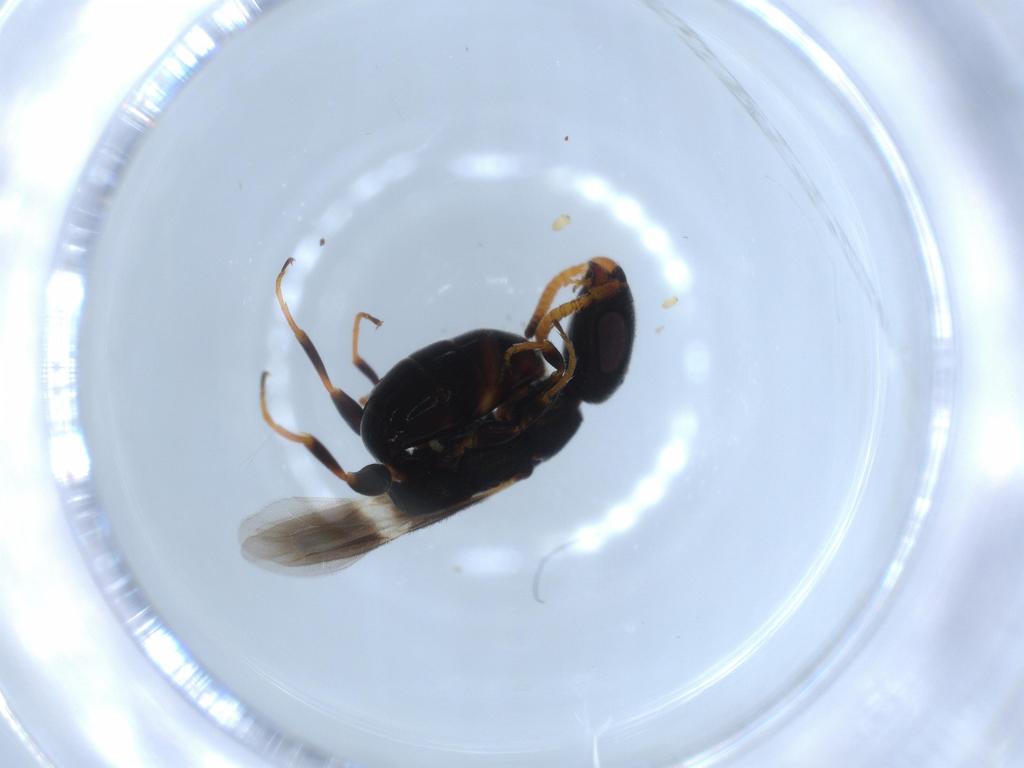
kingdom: Animalia
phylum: Arthropoda
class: Insecta
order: Hymenoptera
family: Bethylidae
